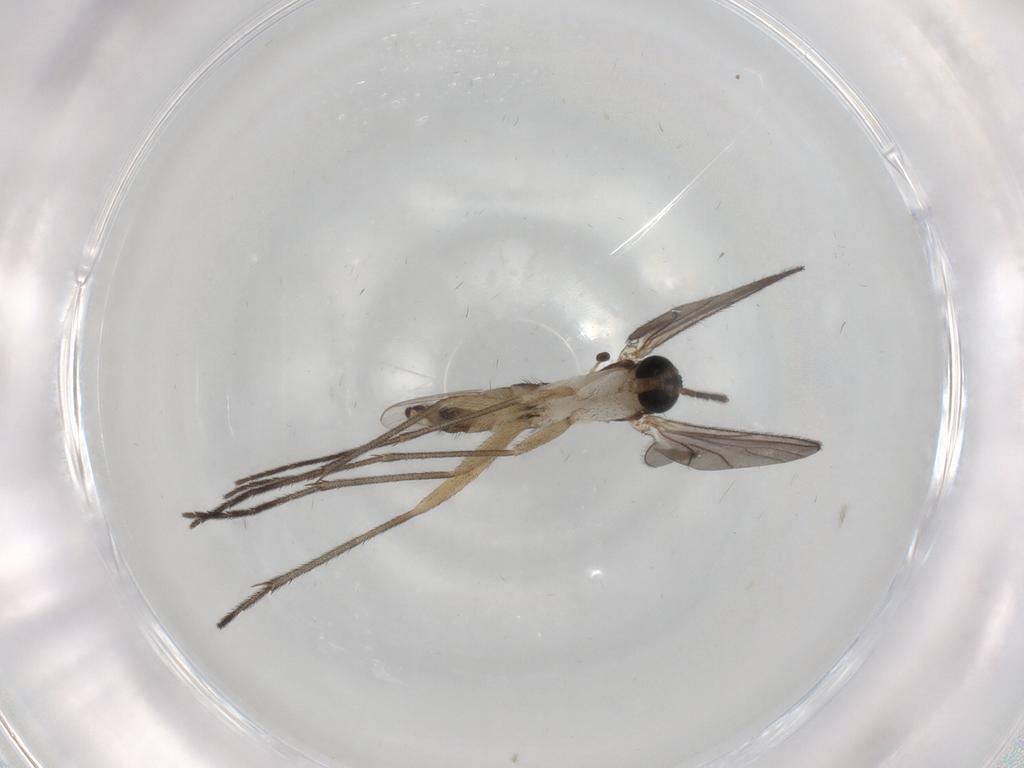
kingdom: Animalia
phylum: Arthropoda
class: Insecta
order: Diptera
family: Sciaridae
